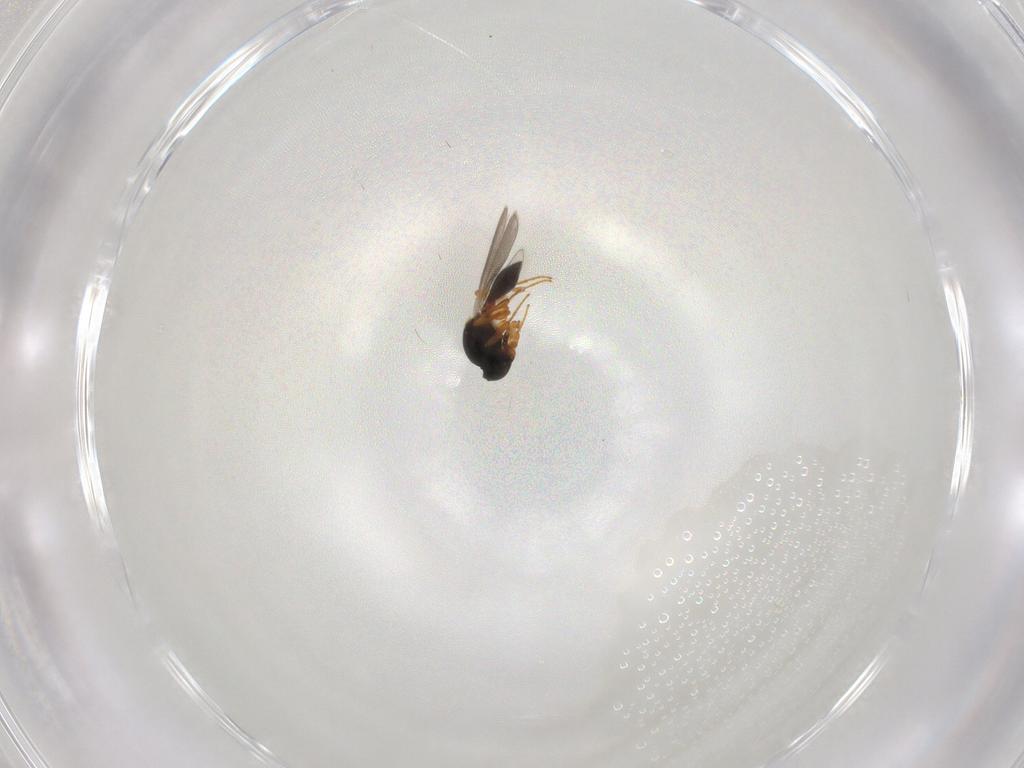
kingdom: Animalia
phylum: Arthropoda
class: Insecta
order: Hymenoptera
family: Platygastridae
